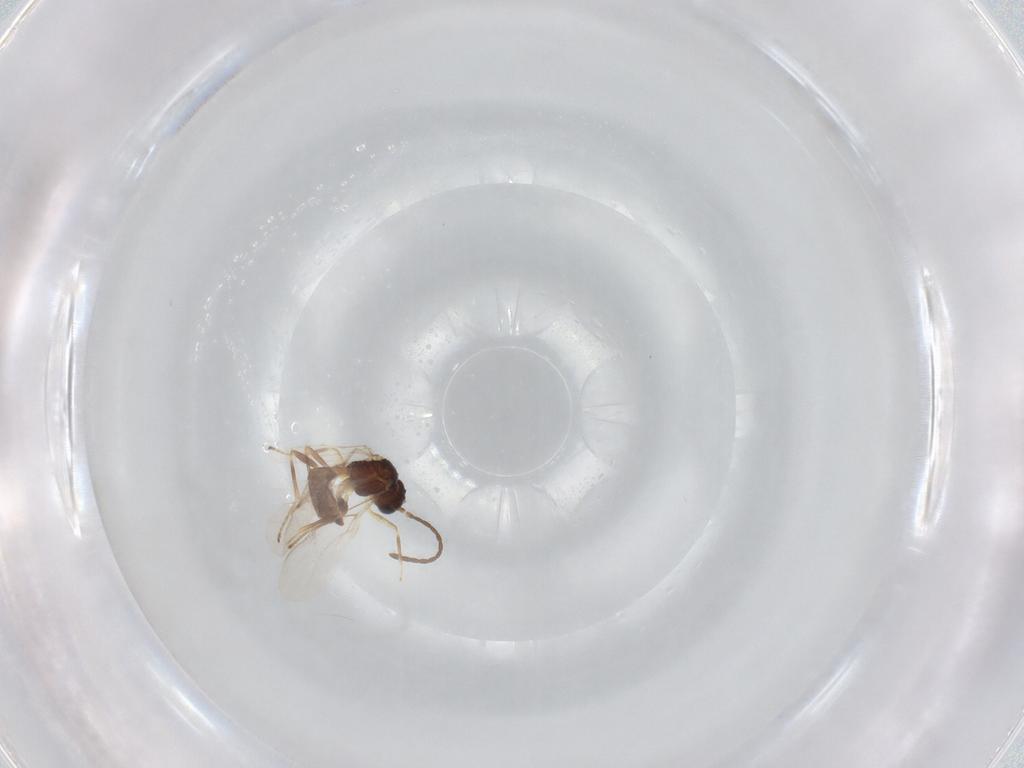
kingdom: Animalia
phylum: Arthropoda
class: Insecta
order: Hymenoptera
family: Braconidae
